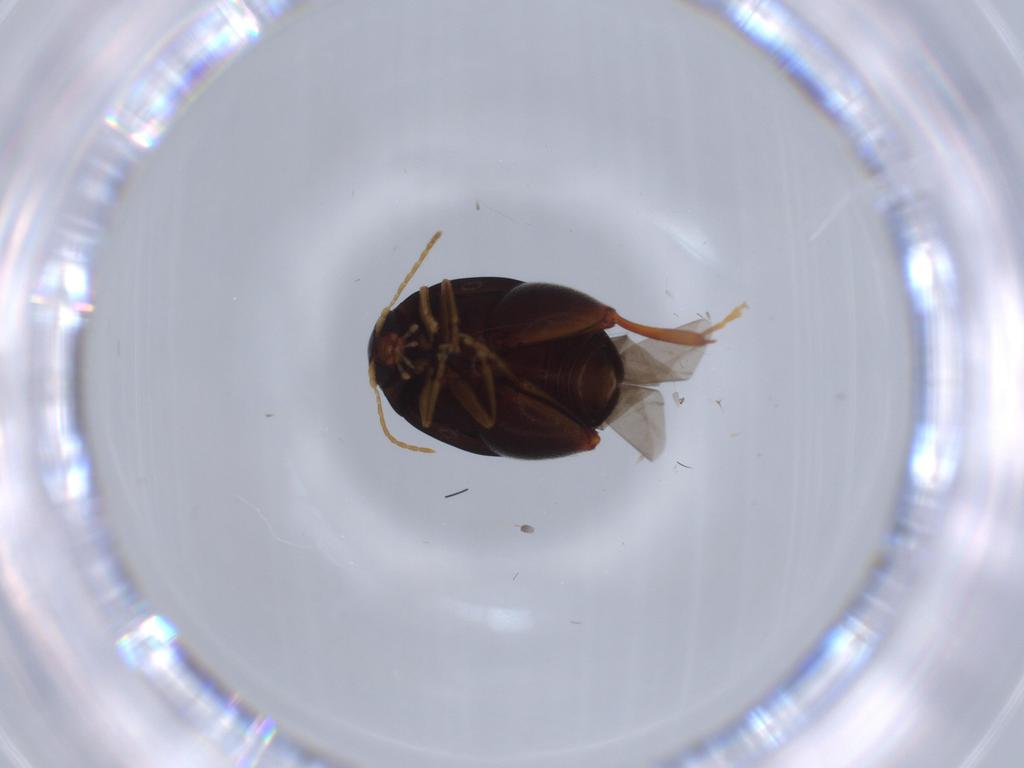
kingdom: Animalia
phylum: Arthropoda
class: Insecta
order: Coleoptera
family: Chrysomelidae
